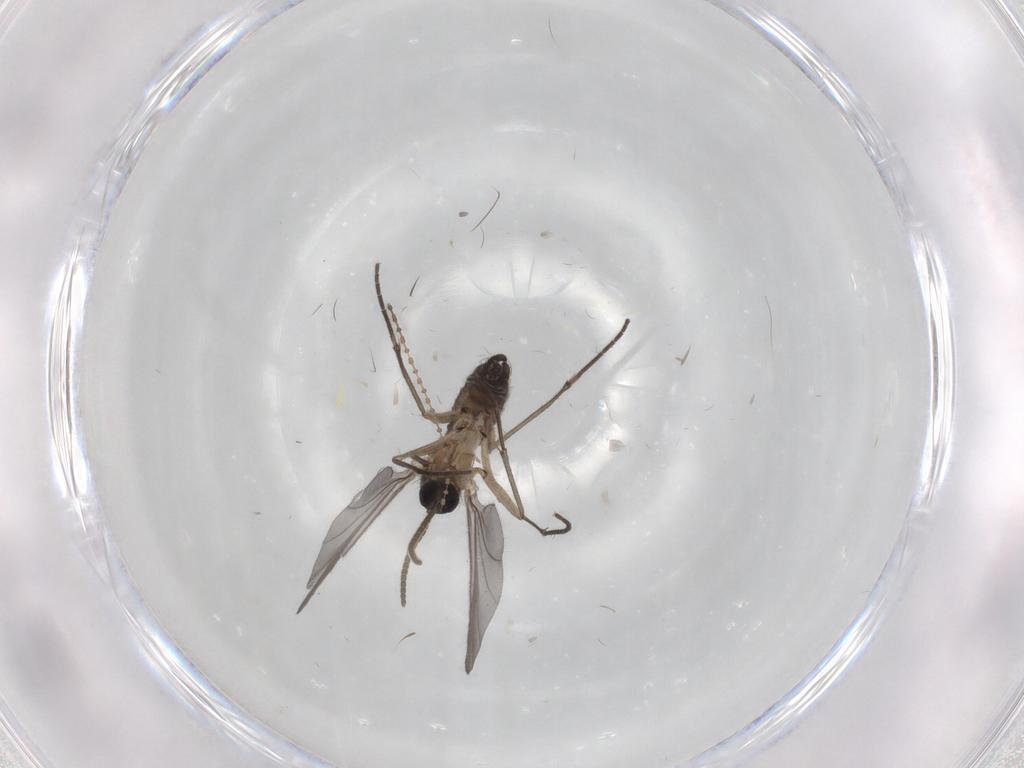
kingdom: Animalia
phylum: Arthropoda
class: Insecta
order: Diptera
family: Cecidomyiidae
